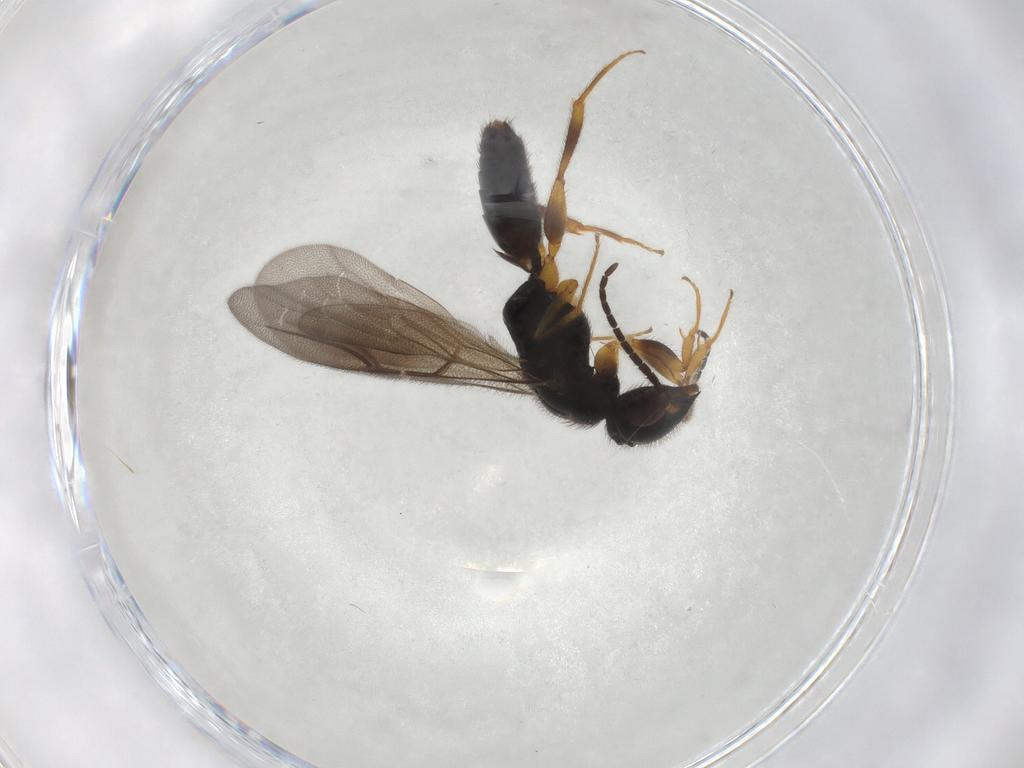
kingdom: Animalia
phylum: Arthropoda
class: Insecta
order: Hymenoptera
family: Bethylidae
